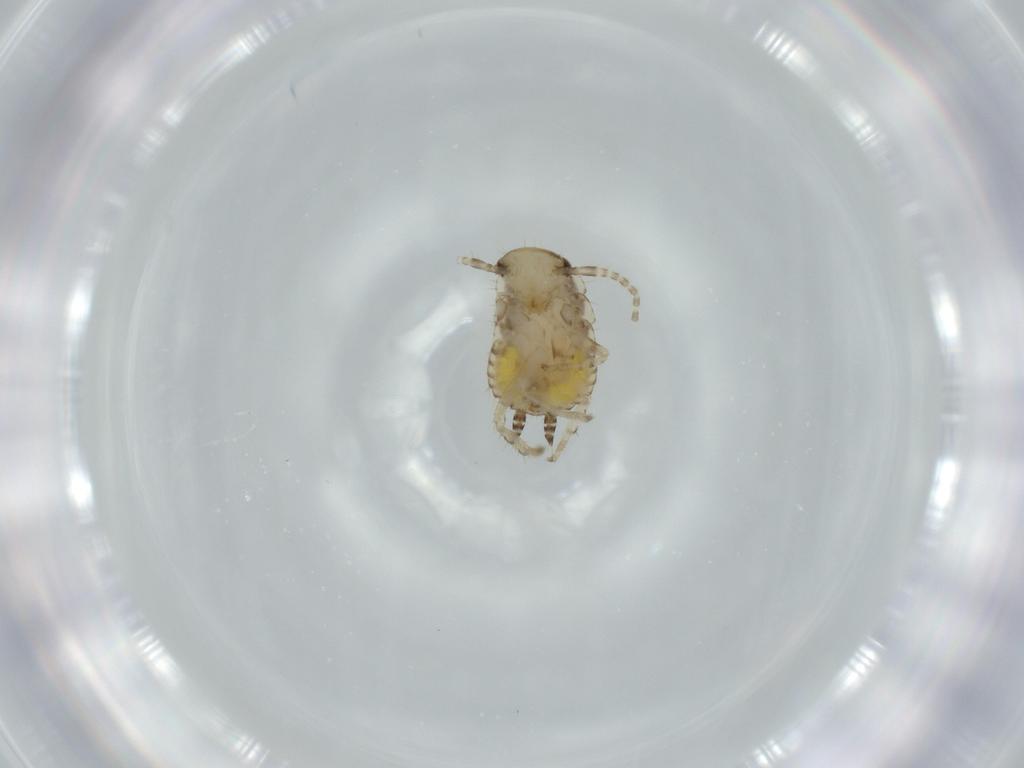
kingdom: Animalia
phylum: Arthropoda
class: Insecta
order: Blattodea
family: Ectobiidae
